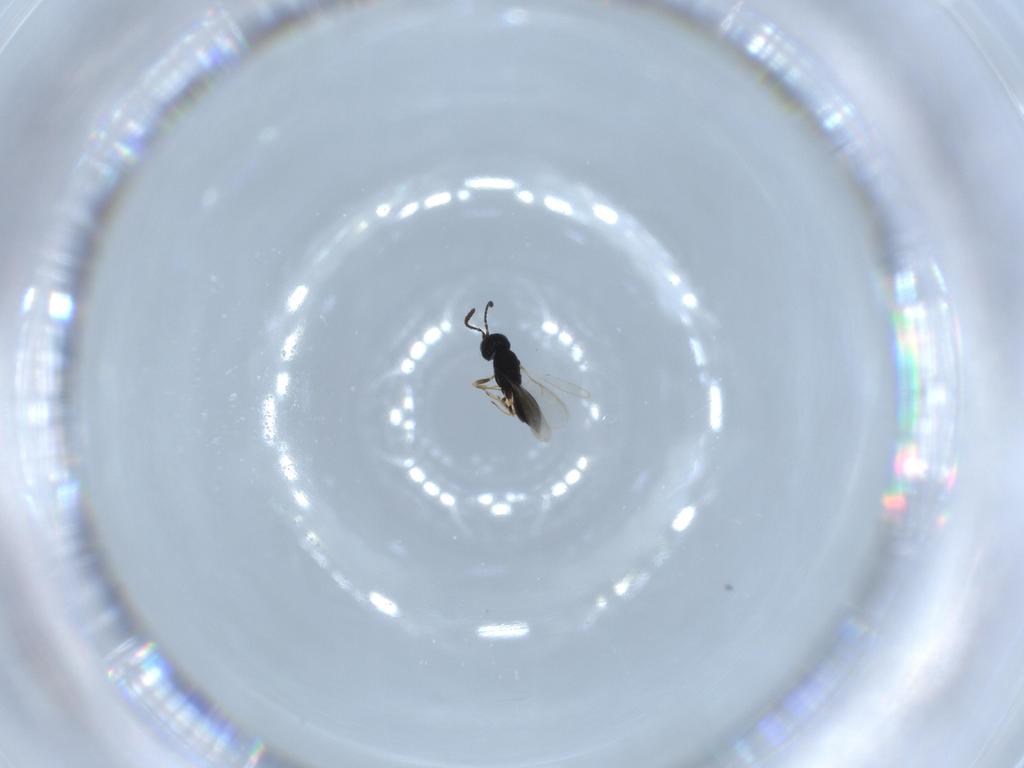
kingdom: Animalia
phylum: Arthropoda
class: Insecta
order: Hymenoptera
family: Scelionidae
